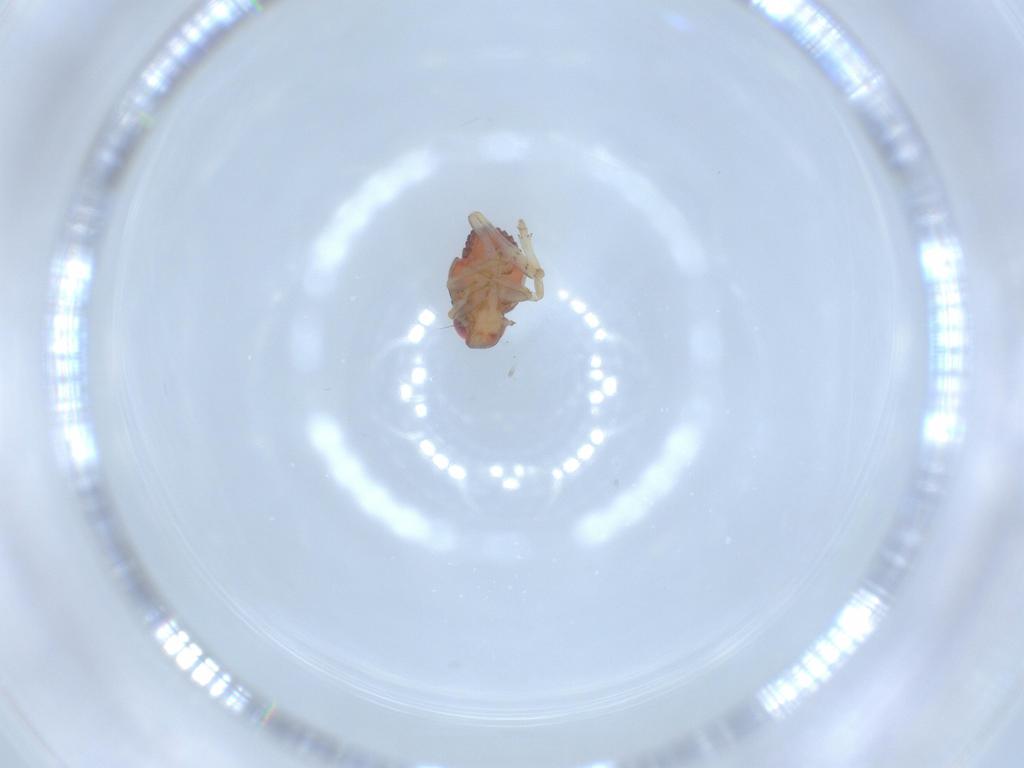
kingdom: Animalia
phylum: Arthropoda
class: Insecta
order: Hemiptera
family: Issidae
